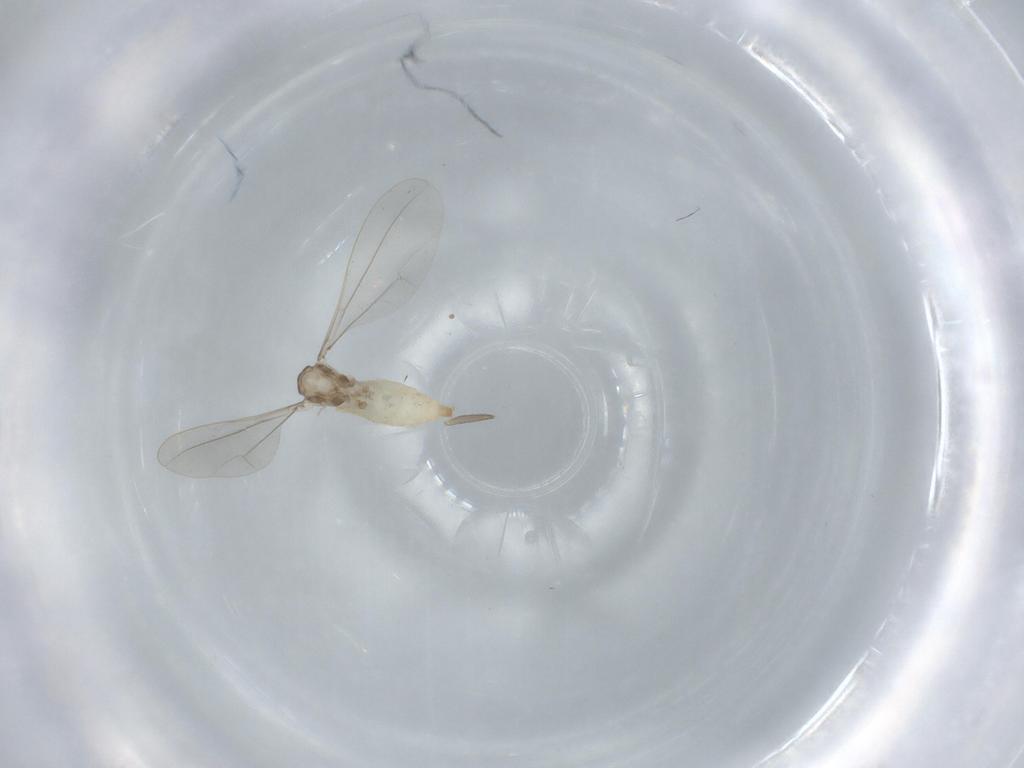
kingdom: Animalia
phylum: Arthropoda
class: Insecta
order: Diptera
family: Cecidomyiidae
